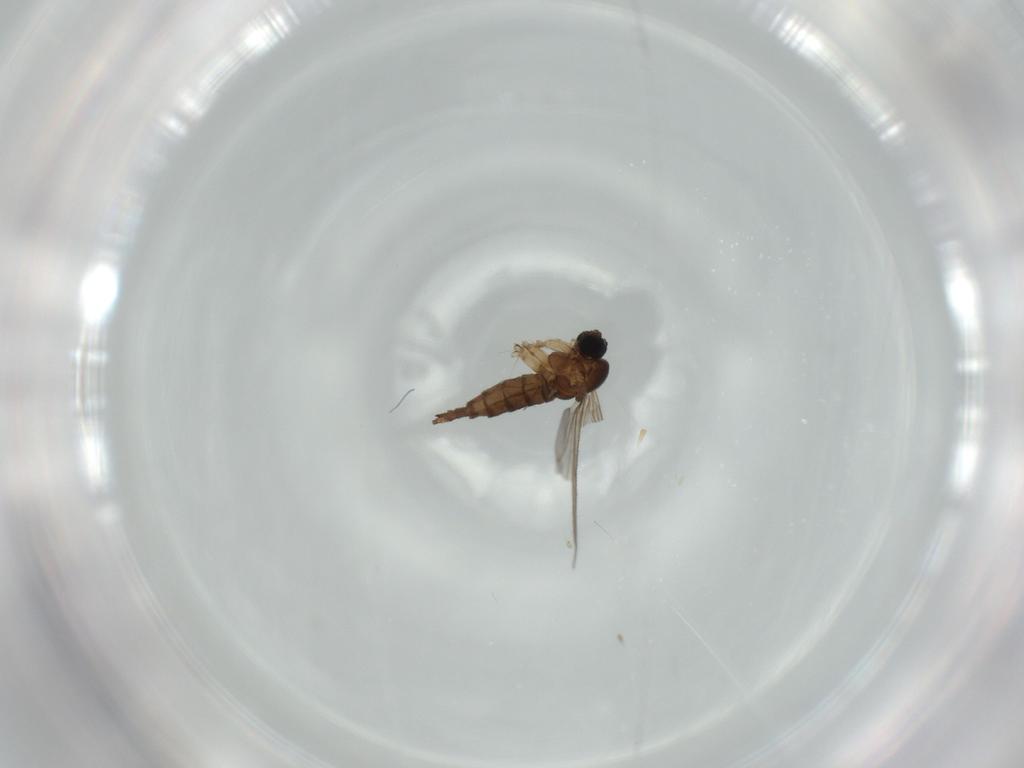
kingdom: Animalia
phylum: Arthropoda
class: Insecta
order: Diptera
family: Sciaridae
